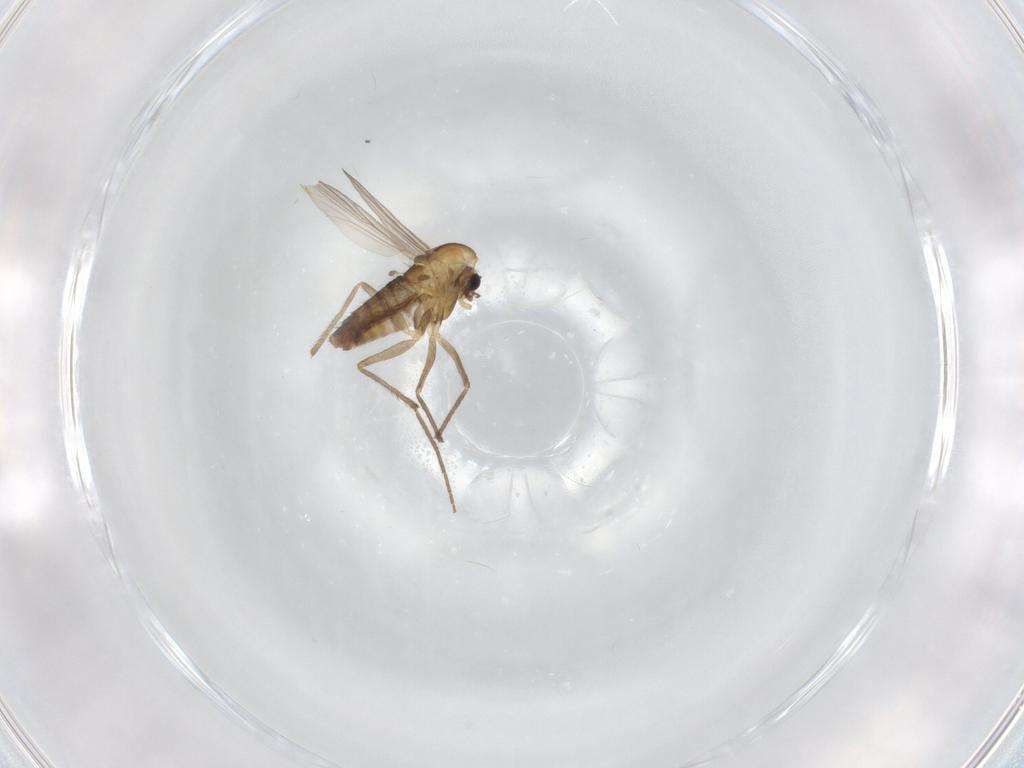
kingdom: Animalia
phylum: Arthropoda
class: Insecta
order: Diptera
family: Chironomidae
